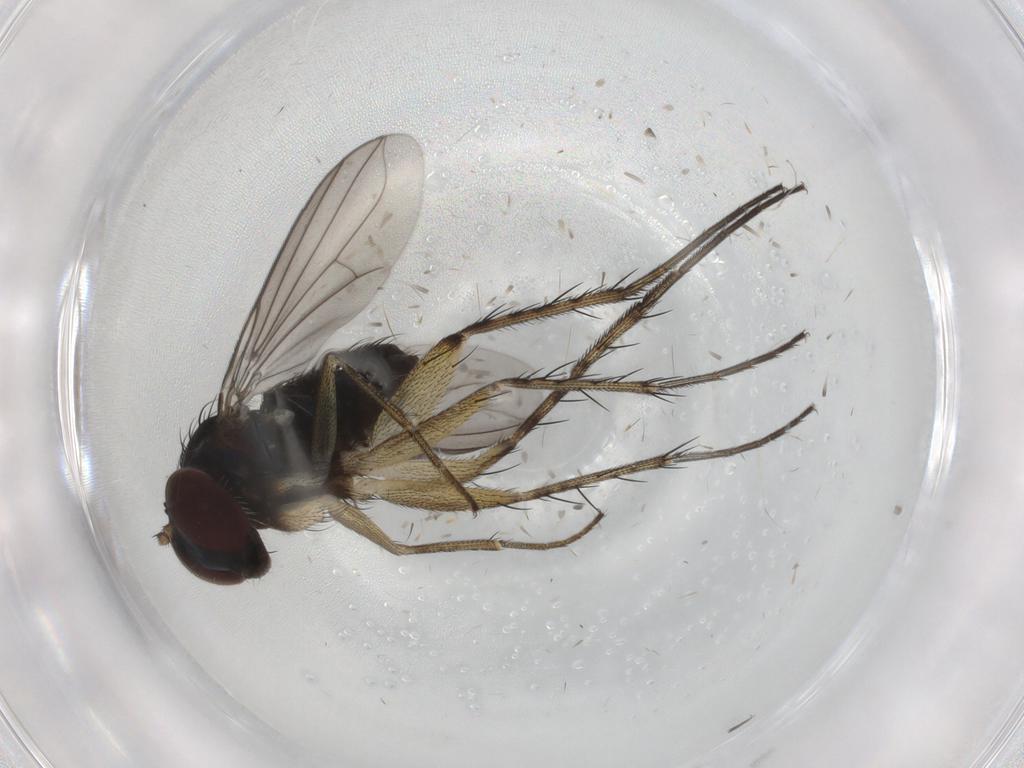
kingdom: Animalia
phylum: Arthropoda
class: Insecta
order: Diptera
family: Dolichopodidae
